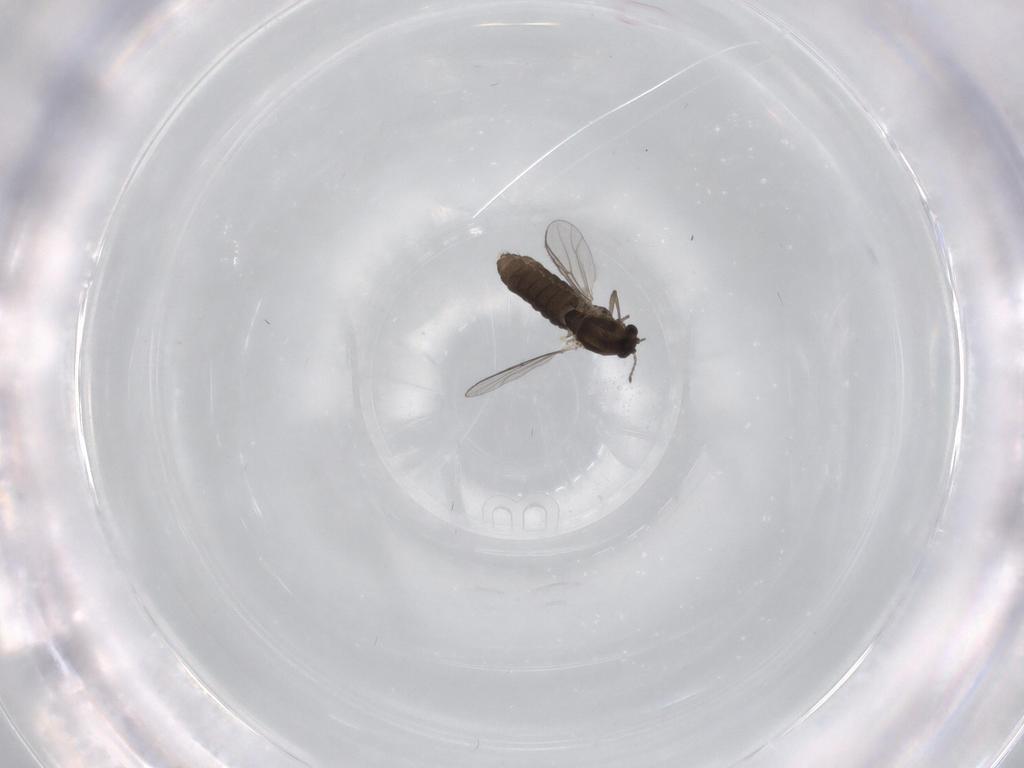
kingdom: Animalia
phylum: Arthropoda
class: Insecta
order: Diptera
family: Chironomidae
